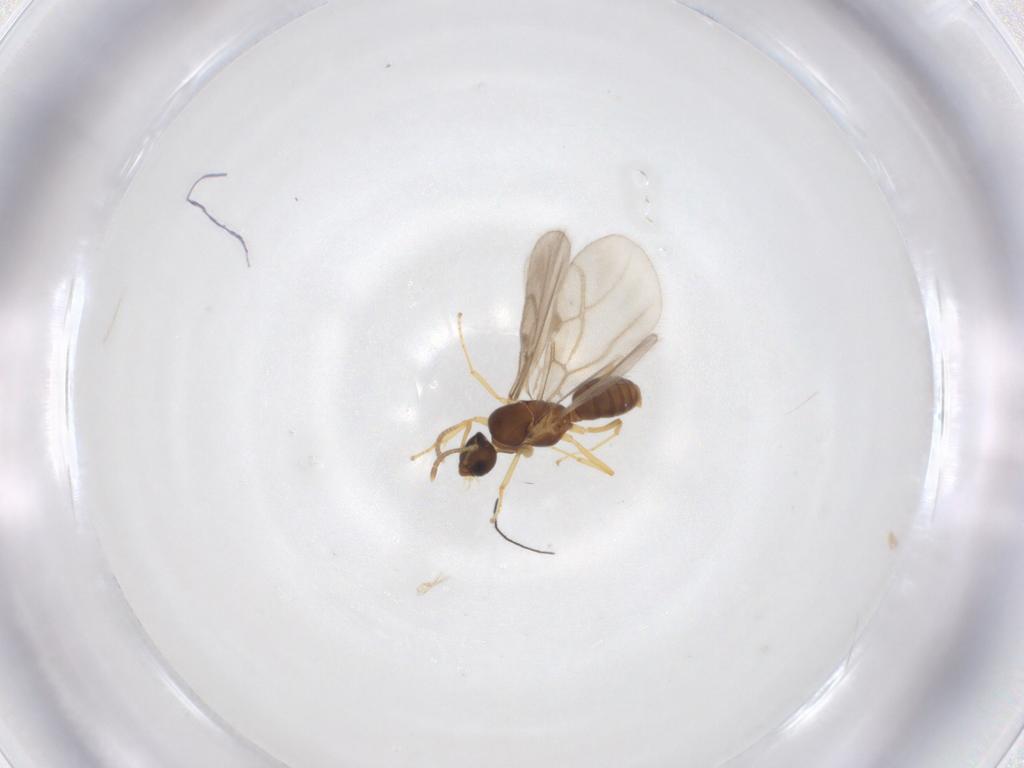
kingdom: Animalia
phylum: Arthropoda
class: Insecta
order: Hymenoptera
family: Formicidae
